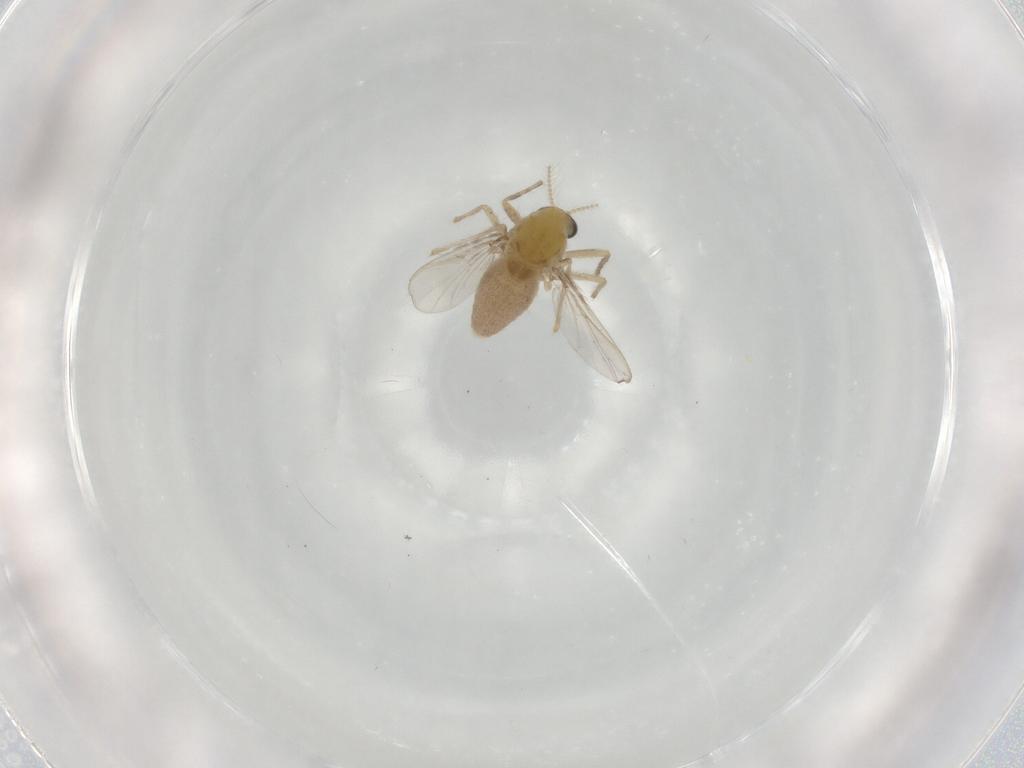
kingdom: Animalia
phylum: Arthropoda
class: Insecta
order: Diptera
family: Chironomidae
